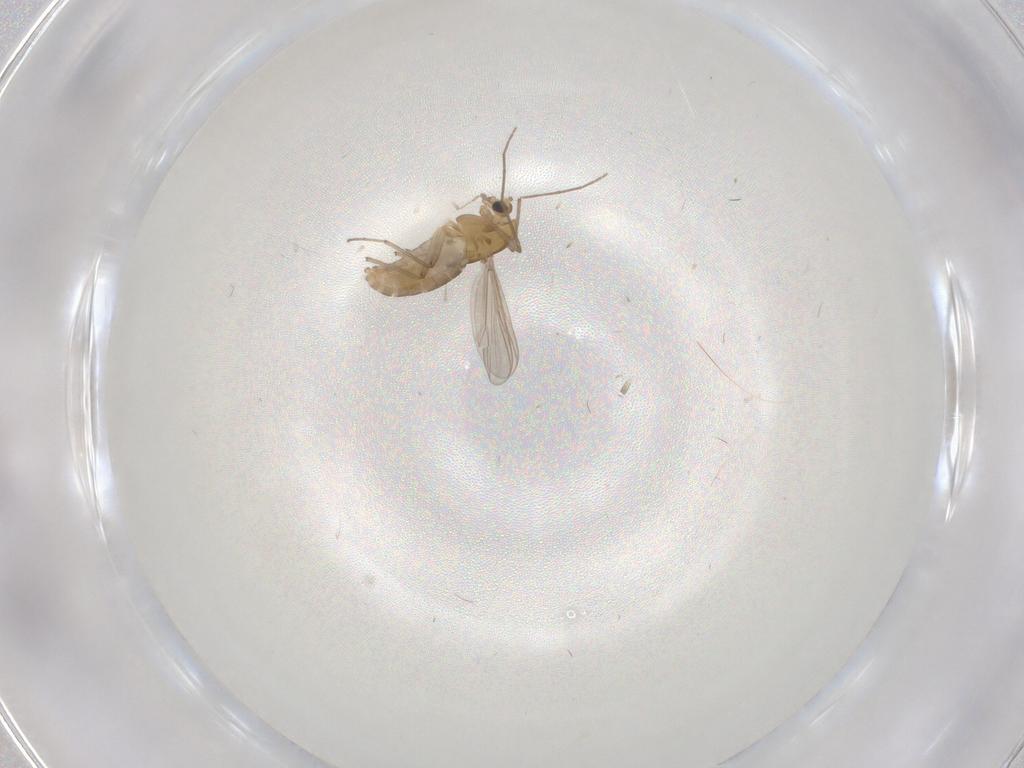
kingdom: Animalia
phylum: Arthropoda
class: Insecta
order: Diptera
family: Chironomidae
